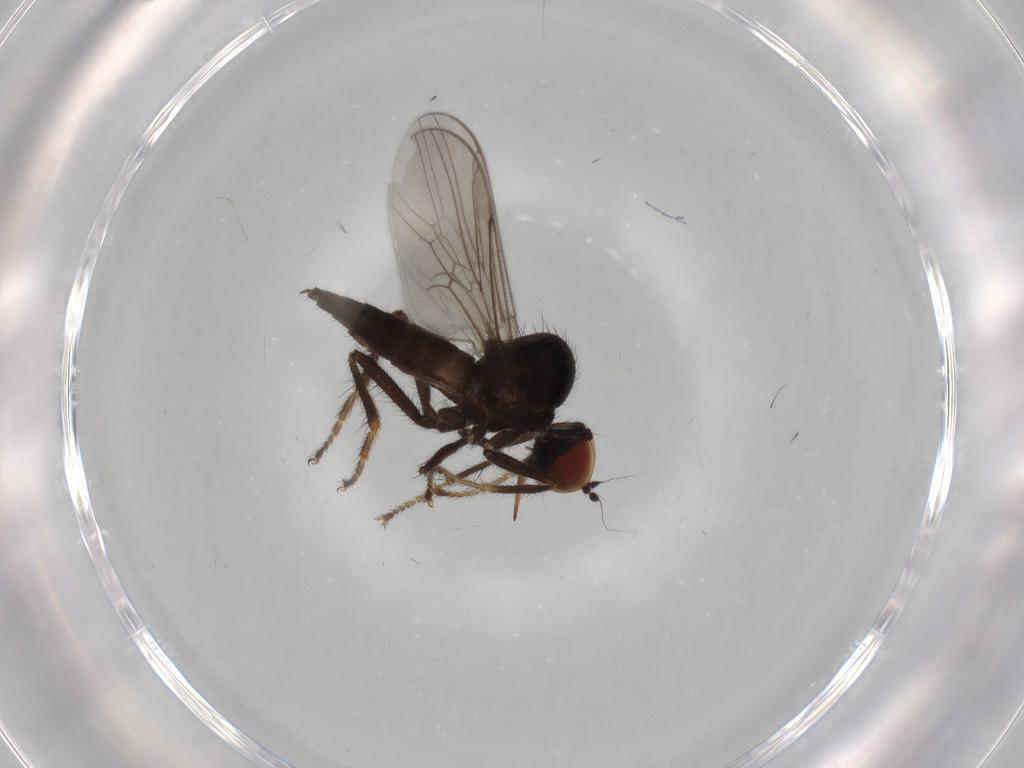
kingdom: Animalia
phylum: Arthropoda
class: Insecta
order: Diptera
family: Hybotidae
